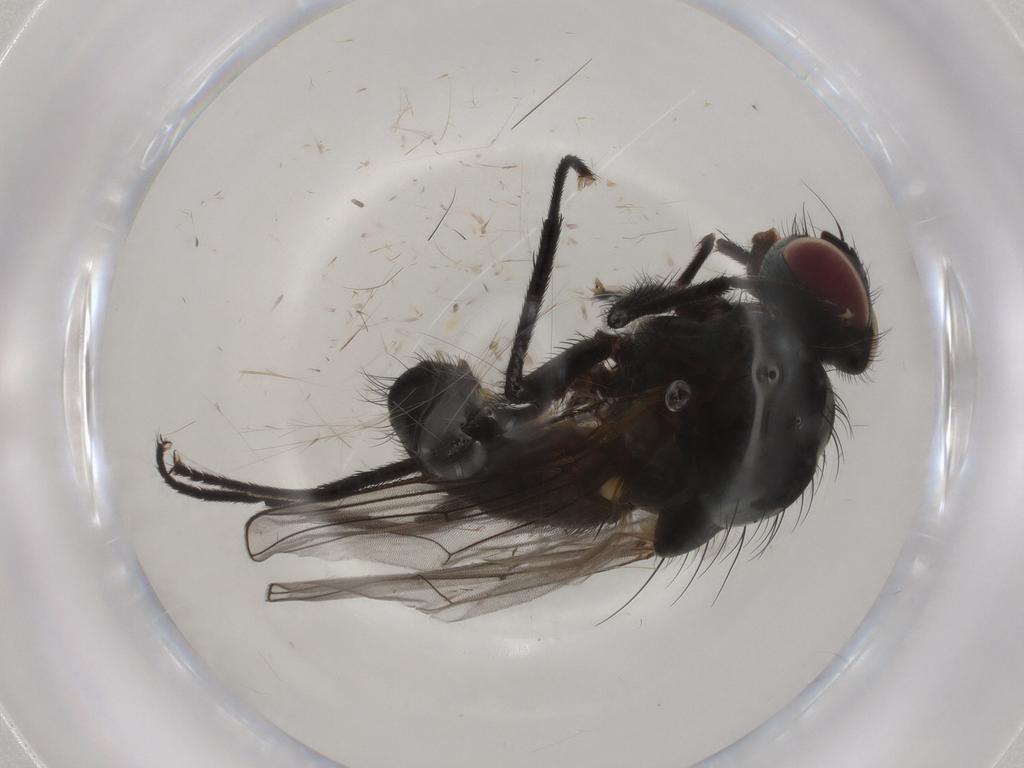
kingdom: Animalia
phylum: Arthropoda
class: Insecta
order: Diptera
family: Anthomyiidae
